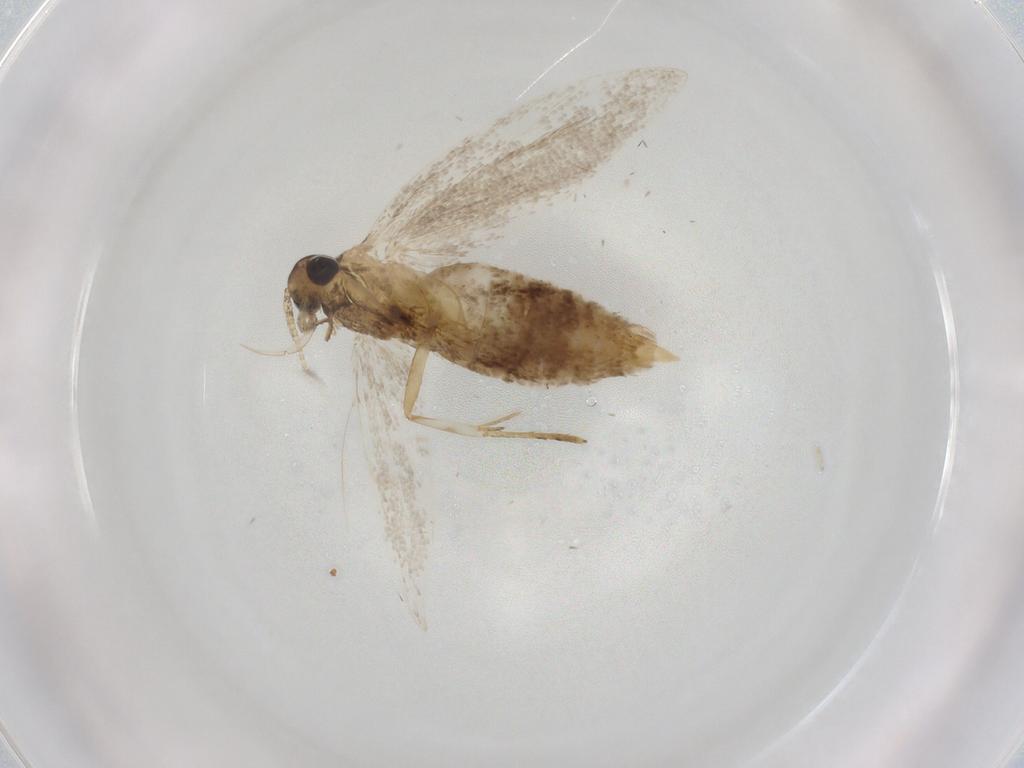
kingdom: Animalia
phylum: Arthropoda
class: Insecta
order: Lepidoptera
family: Lecithoceridae
